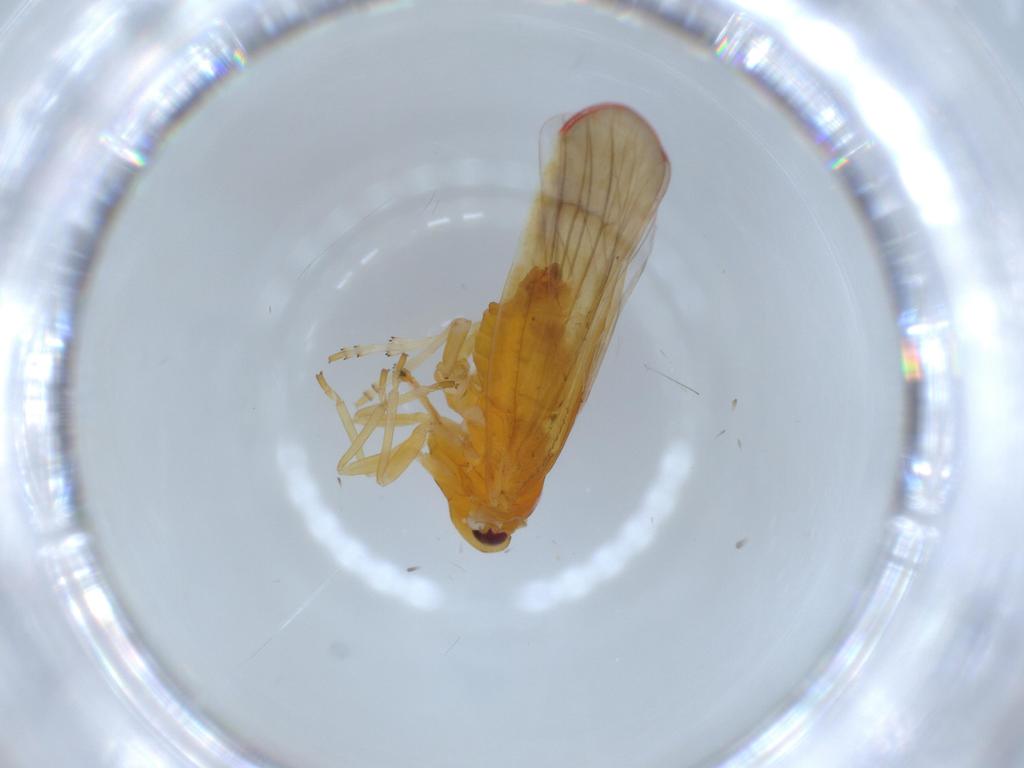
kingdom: Animalia
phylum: Arthropoda
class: Insecta
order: Hemiptera
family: Derbidae
